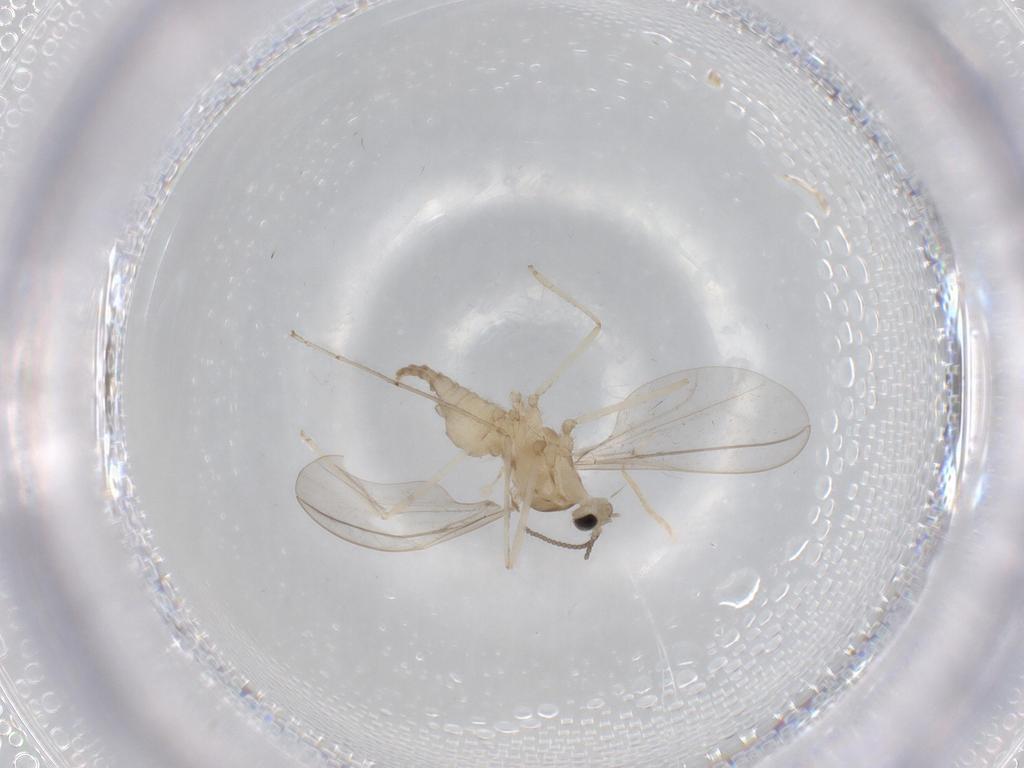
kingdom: Animalia
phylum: Arthropoda
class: Insecta
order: Diptera
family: Cecidomyiidae
